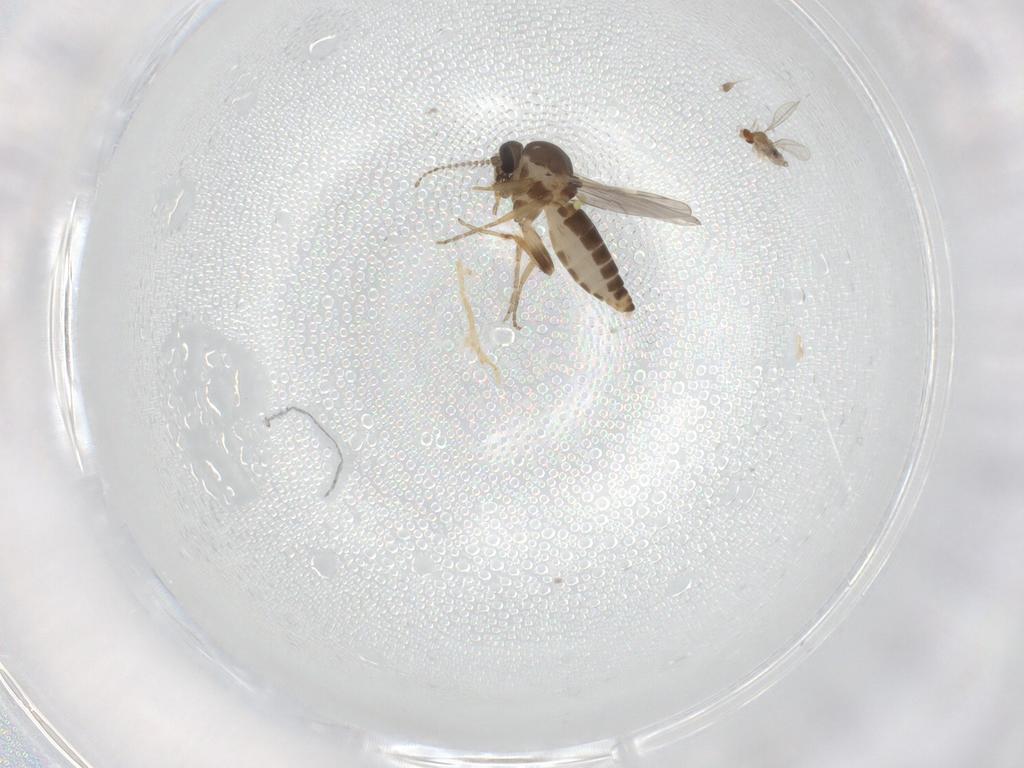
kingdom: Animalia
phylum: Arthropoda
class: Insecta
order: Diptera
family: Ceratopogonidae
